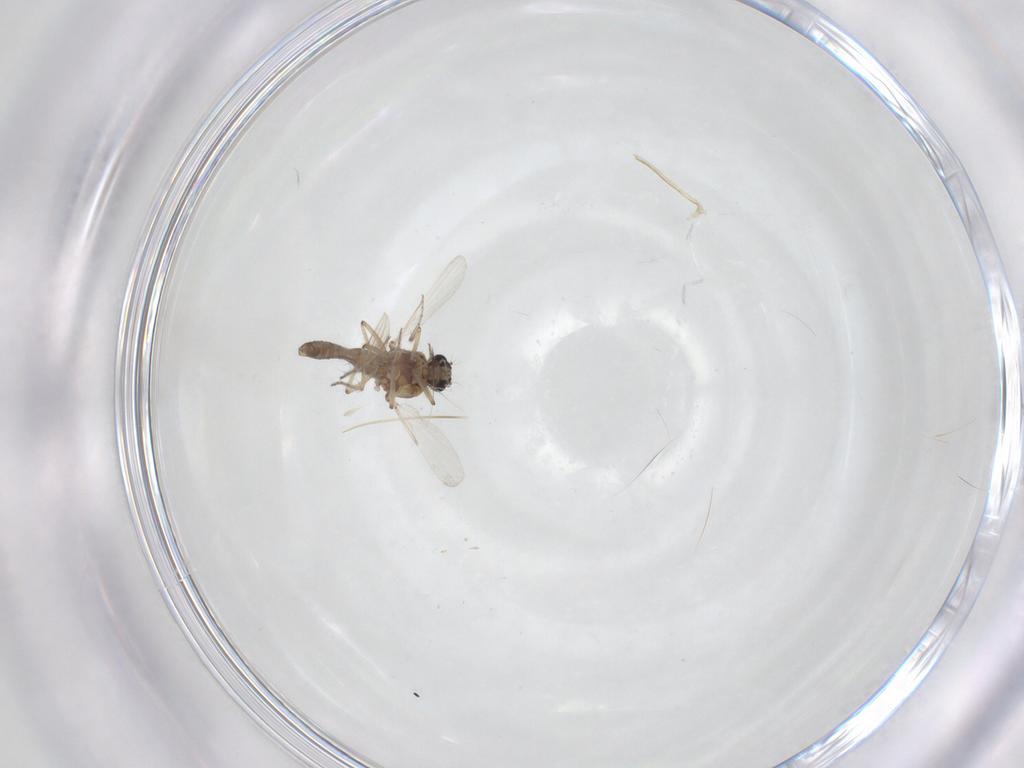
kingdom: Animalia
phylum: Arthropoda
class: Insecta
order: Diptera
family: Ceratopogonidae
